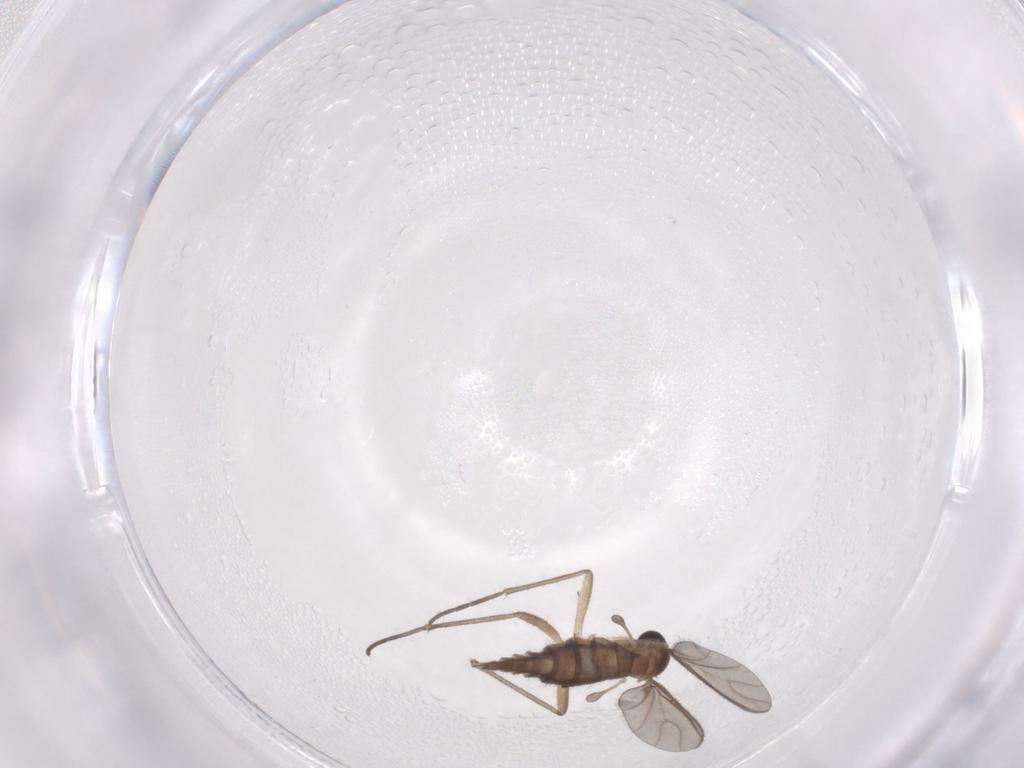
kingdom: Animalia
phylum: Arthropoda
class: Insecta
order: Diptera
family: Sciaridae
